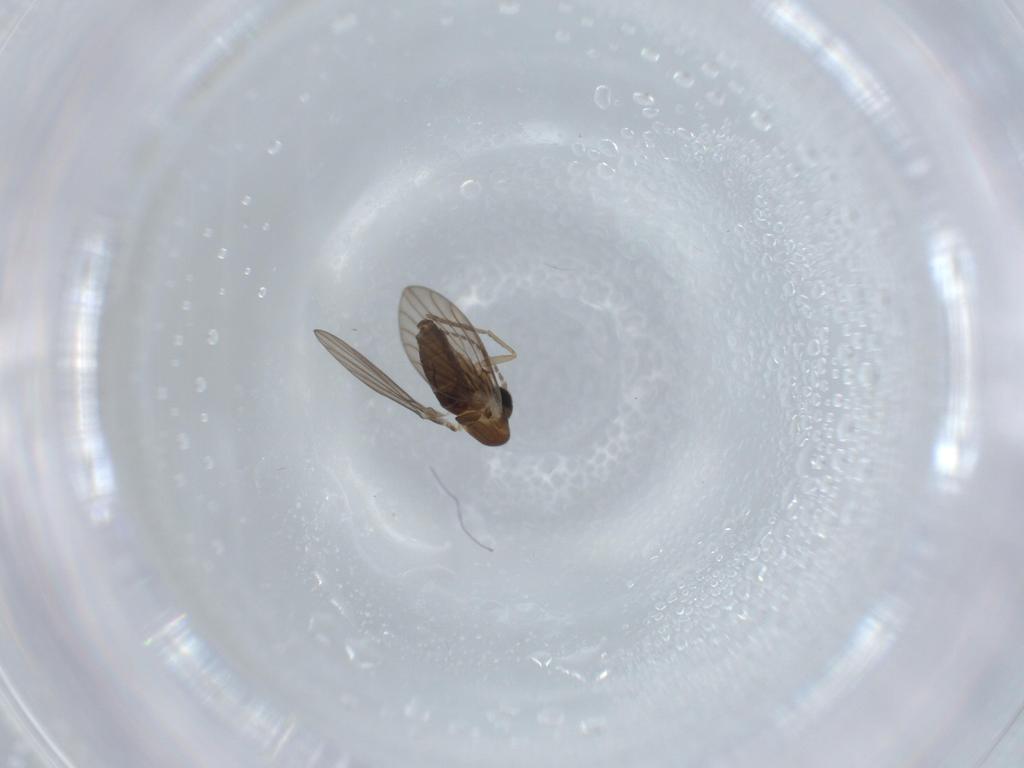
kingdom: Animalia
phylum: Arthropoda
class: Insecta
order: Diptera
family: Psychodidae
